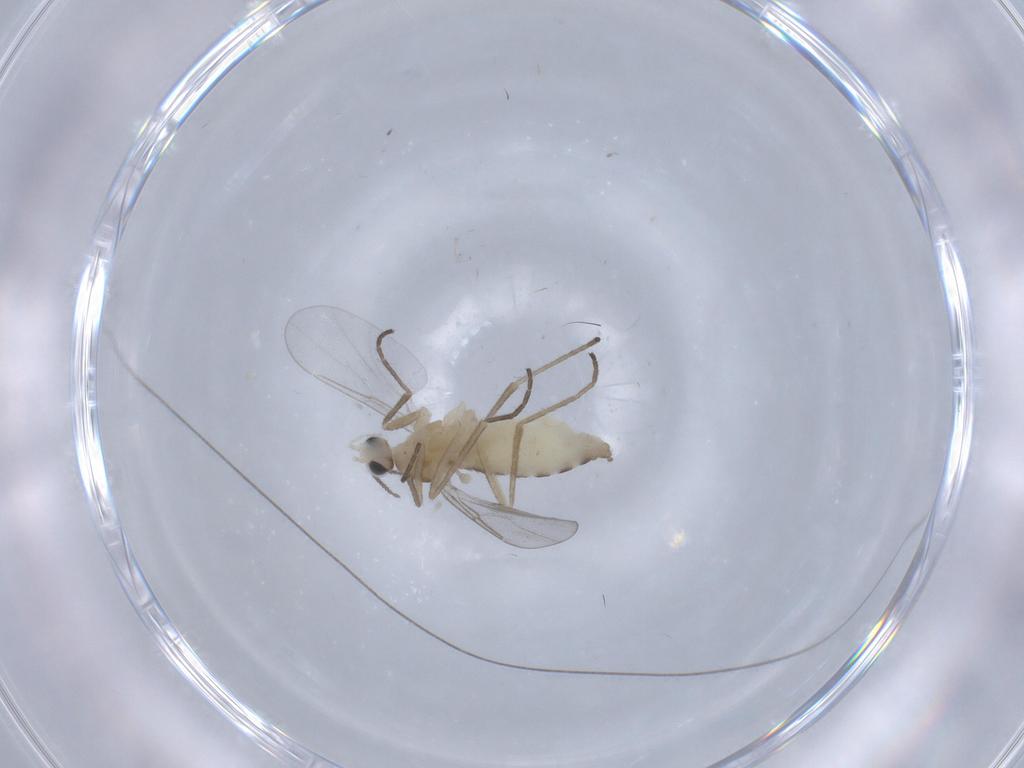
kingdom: Animalia
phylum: Arthropoda
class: Insecta
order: Diptera
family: Cecidomyiidae
